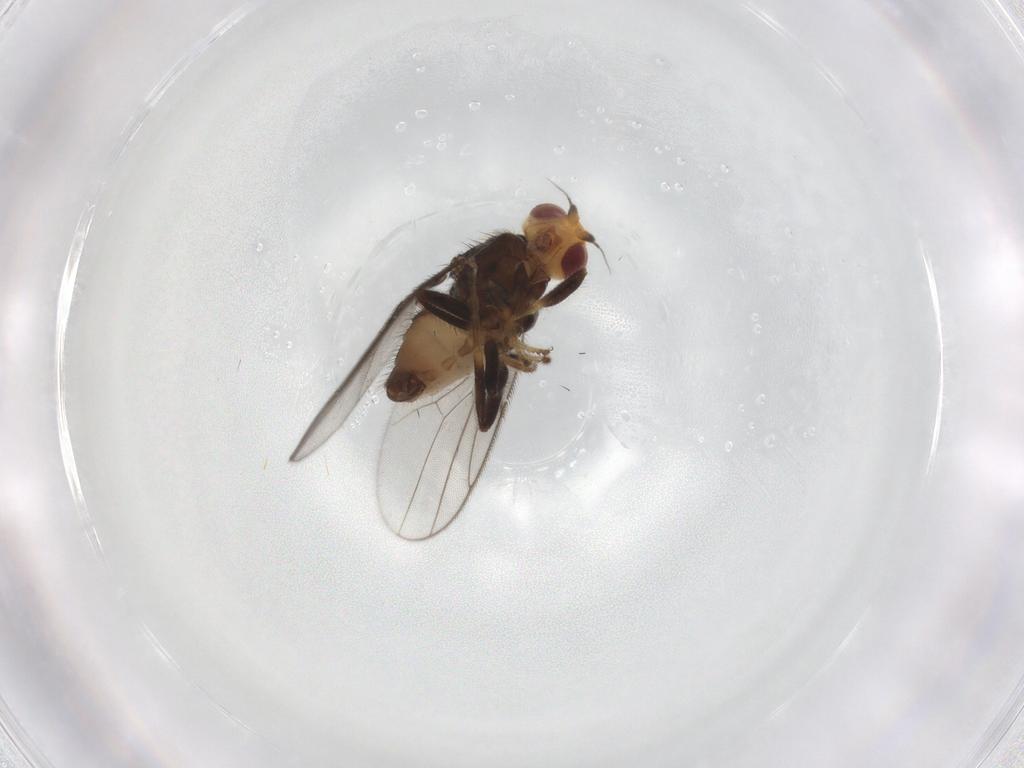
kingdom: Animalia
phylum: Arthropoda
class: Insecta
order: Diptera
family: Chloropidae
